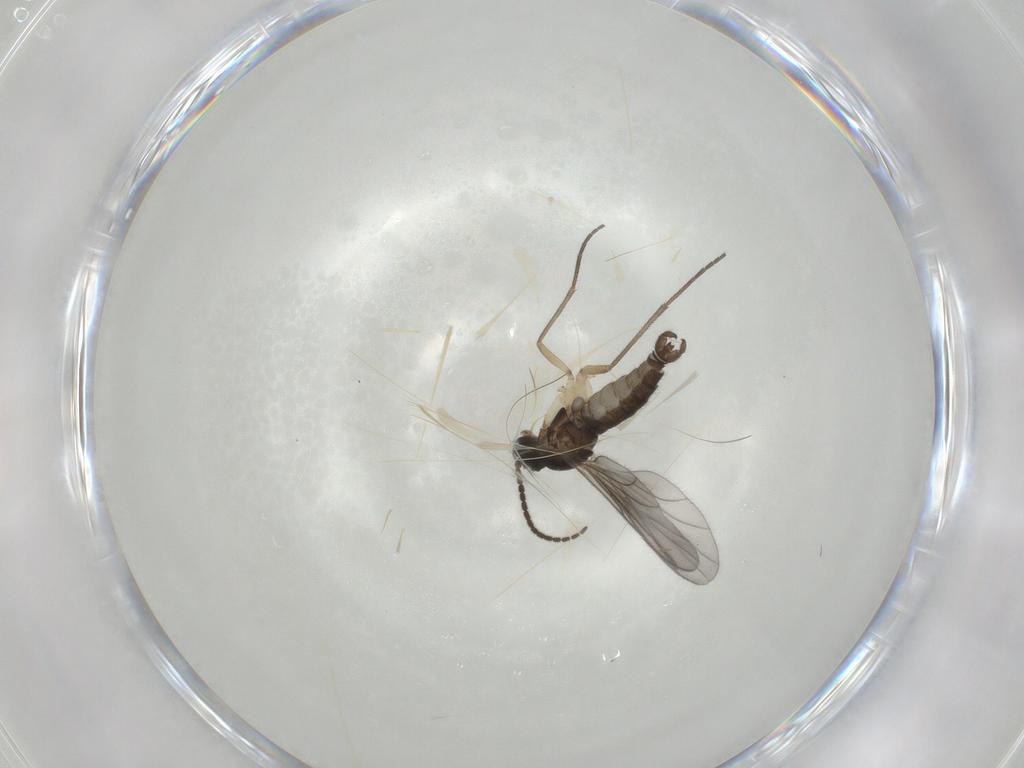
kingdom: Animalia
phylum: Arthropoda
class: Insecta
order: Diptera
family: Sciaridae
